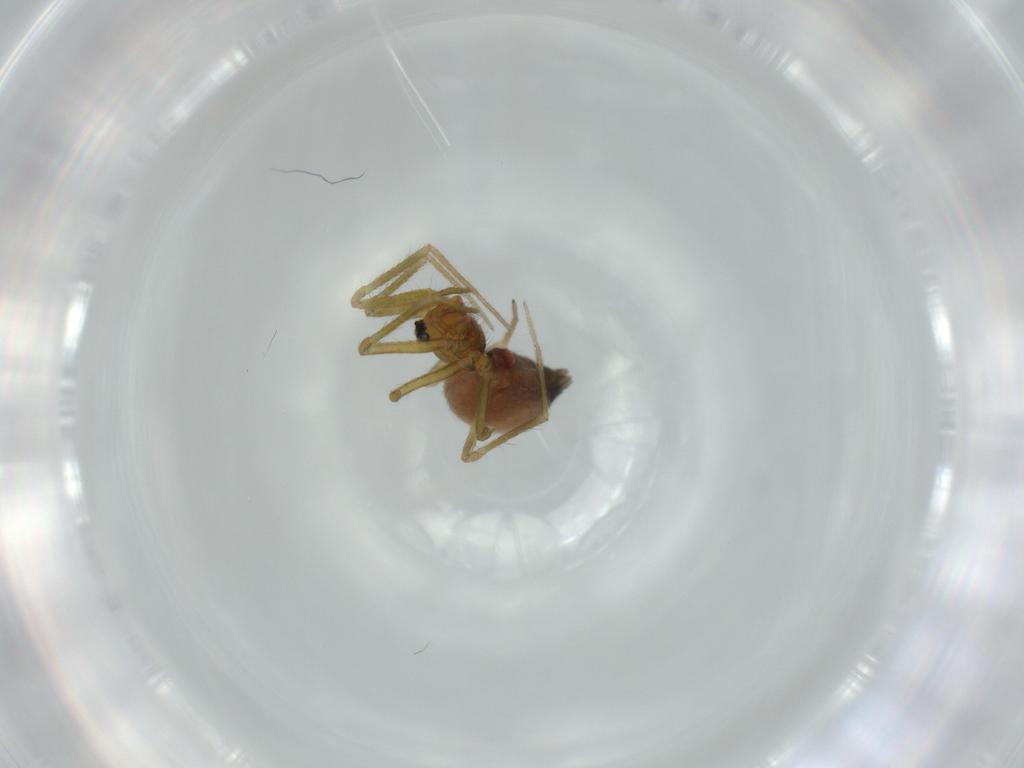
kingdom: Animalia
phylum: Arthropoda
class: Arachnida
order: Araneae
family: Linyphiidae
